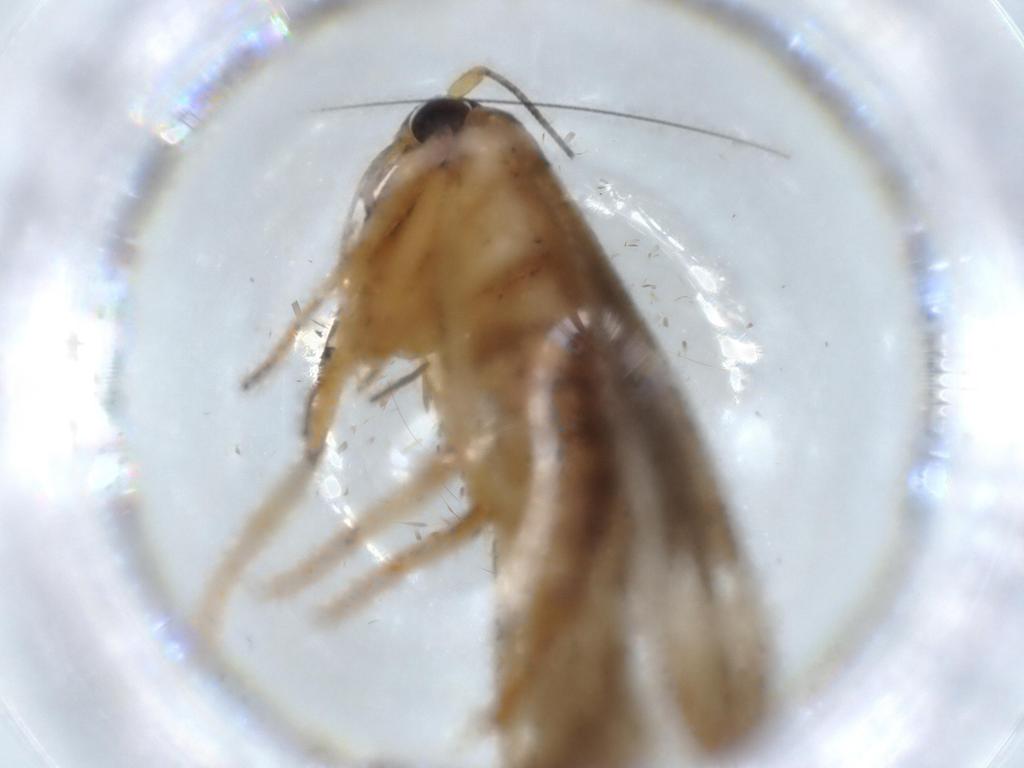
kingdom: Animalia
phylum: Arthropoda
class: Insecta
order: Lepidoptera
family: Blastobasidae
